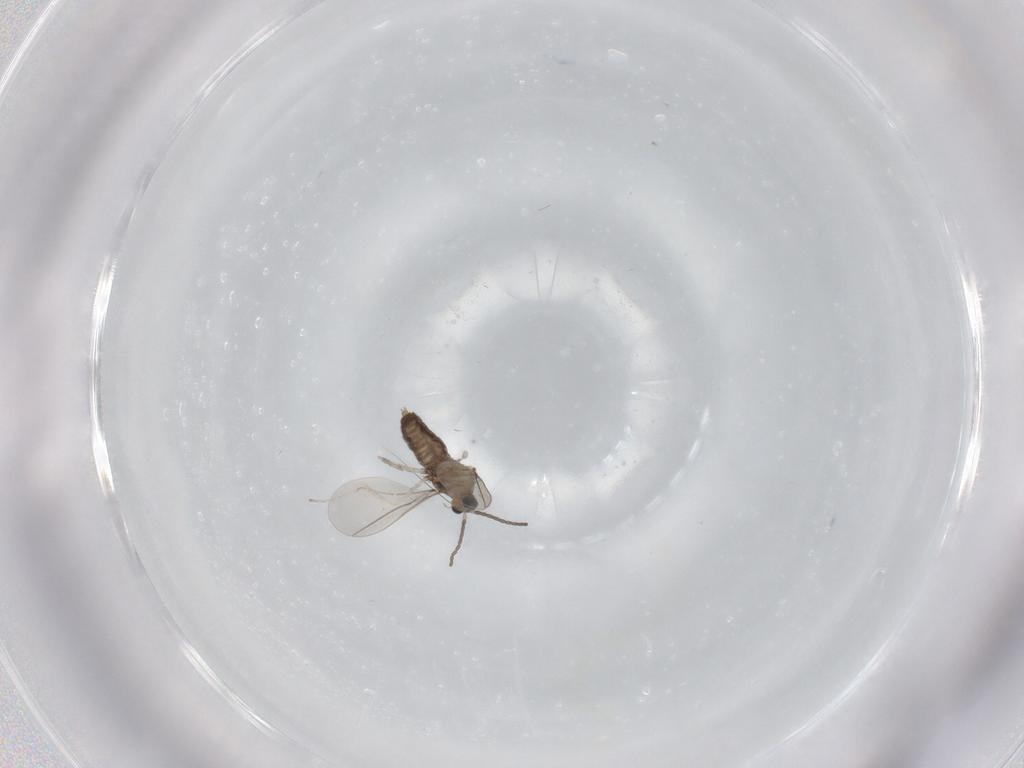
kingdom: Animalia
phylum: Arthropoda
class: Insecta
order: Diptera
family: Cecidomyiidae
